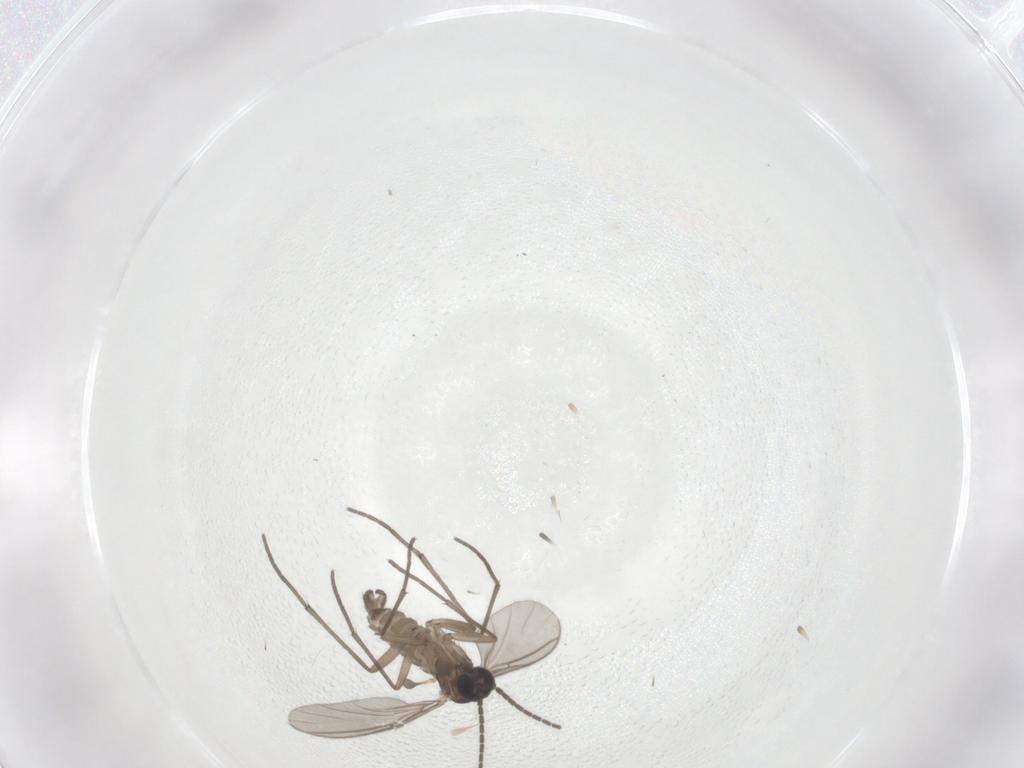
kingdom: Animalia
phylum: Arthropoda
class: Insecta
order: Diptera
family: Sciaridae
